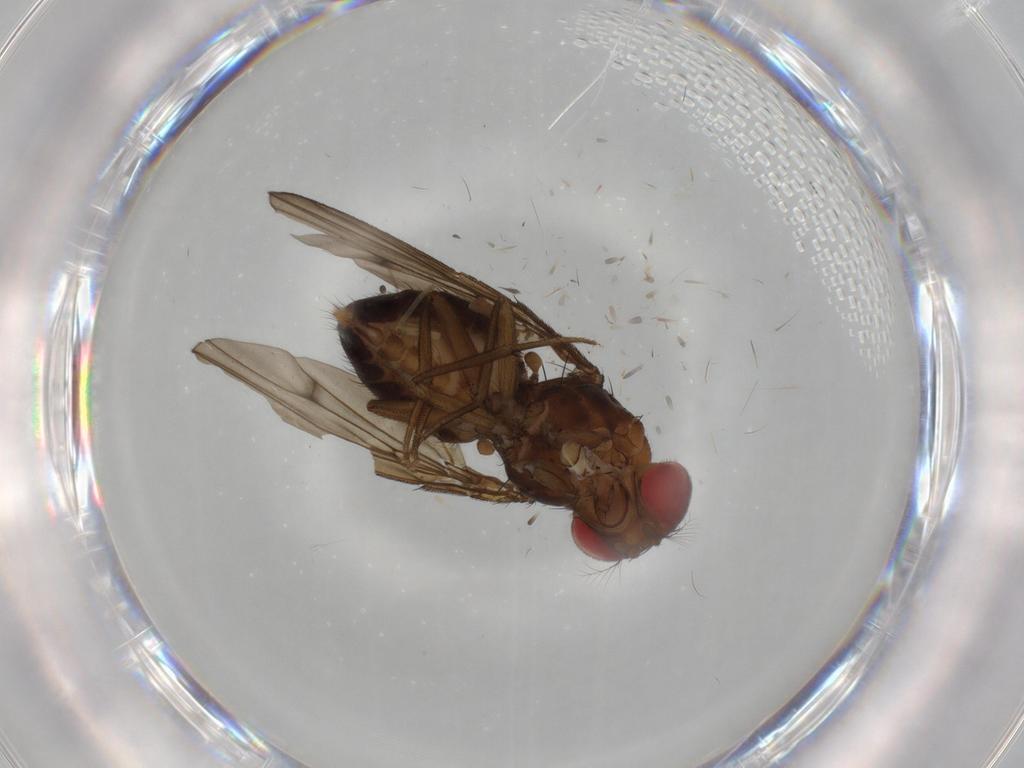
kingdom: Animalia
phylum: Arthropoda
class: Insecta
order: Diptera
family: Drosophilidae
